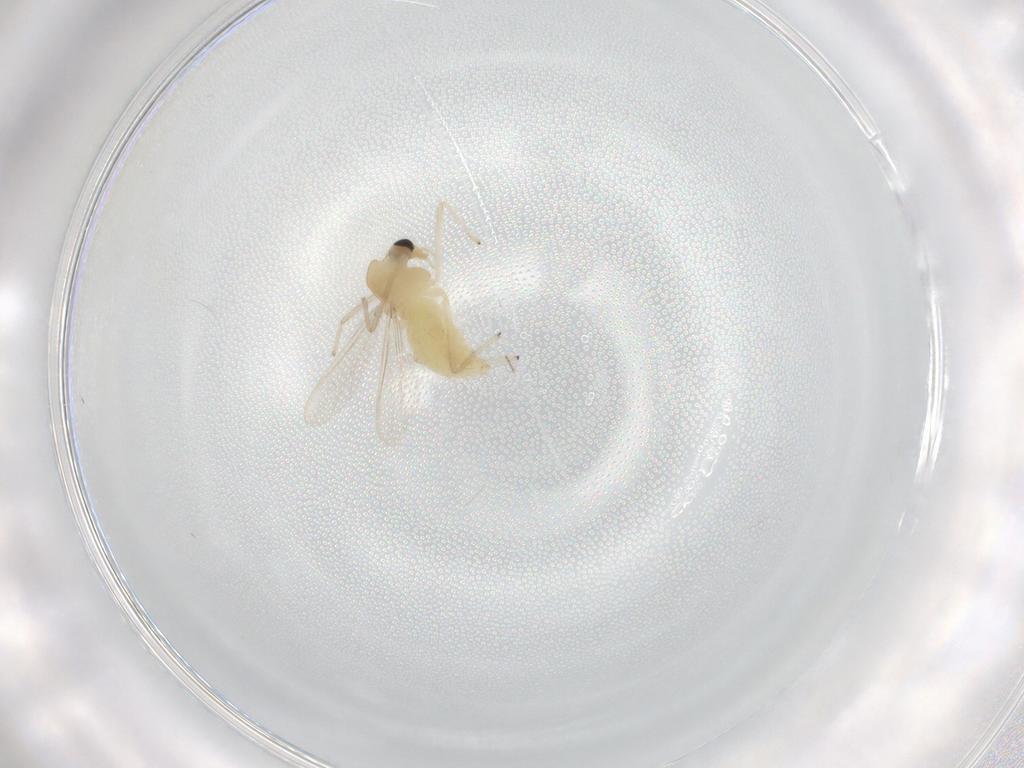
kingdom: Animalia
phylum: Arthropoda
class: Insecta
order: Diptera
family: Chironomidae
